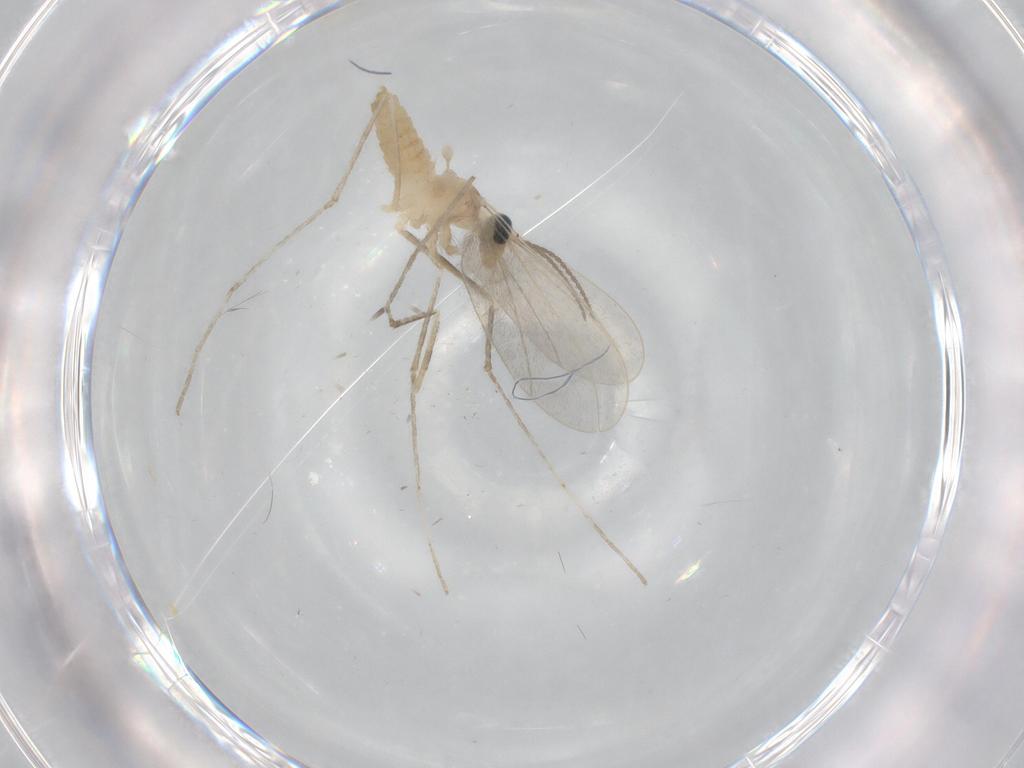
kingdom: Animalia
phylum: Arthropoda
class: Insecta
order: Diptera
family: Cecidomyiidae
